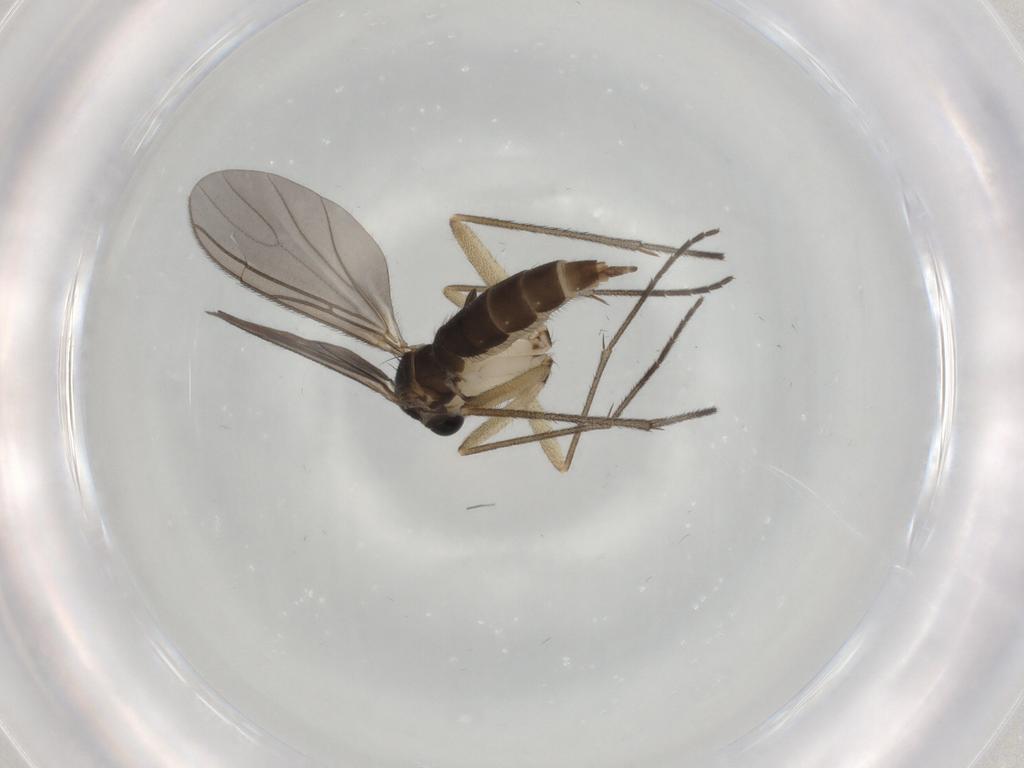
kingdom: Animalia
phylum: Arthropoda
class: Insecta
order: Diptera
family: Sciaridae
